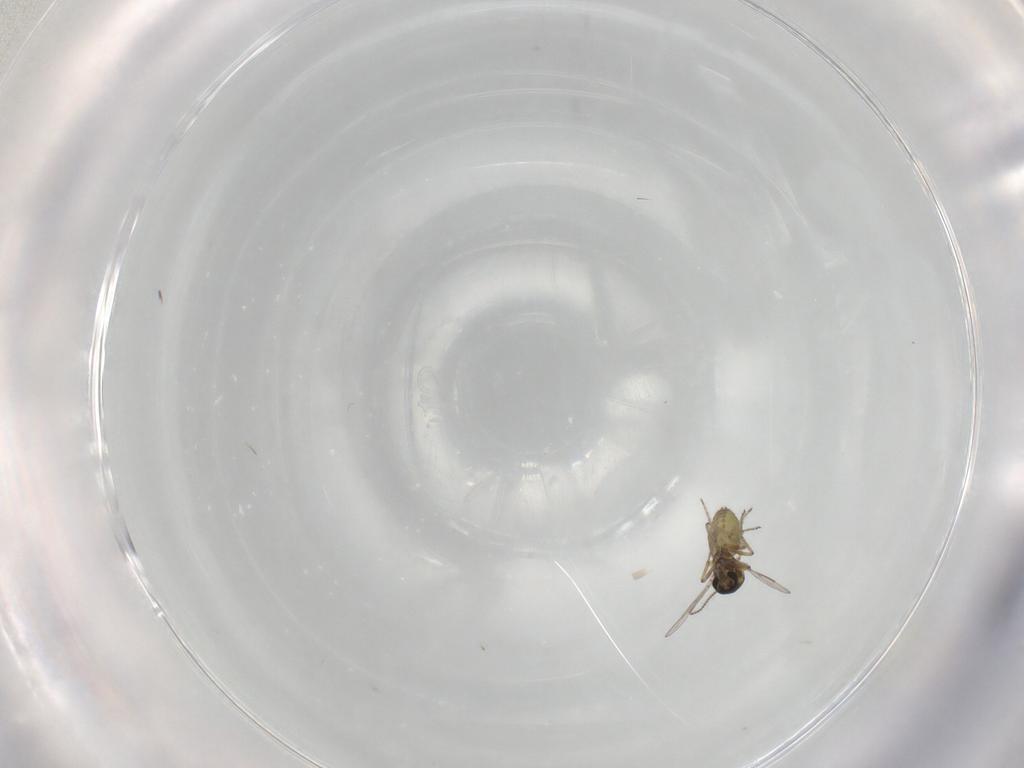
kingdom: Animalia
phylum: Arthropoda
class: Insecta
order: Diptera
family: Ceratopogonidae
